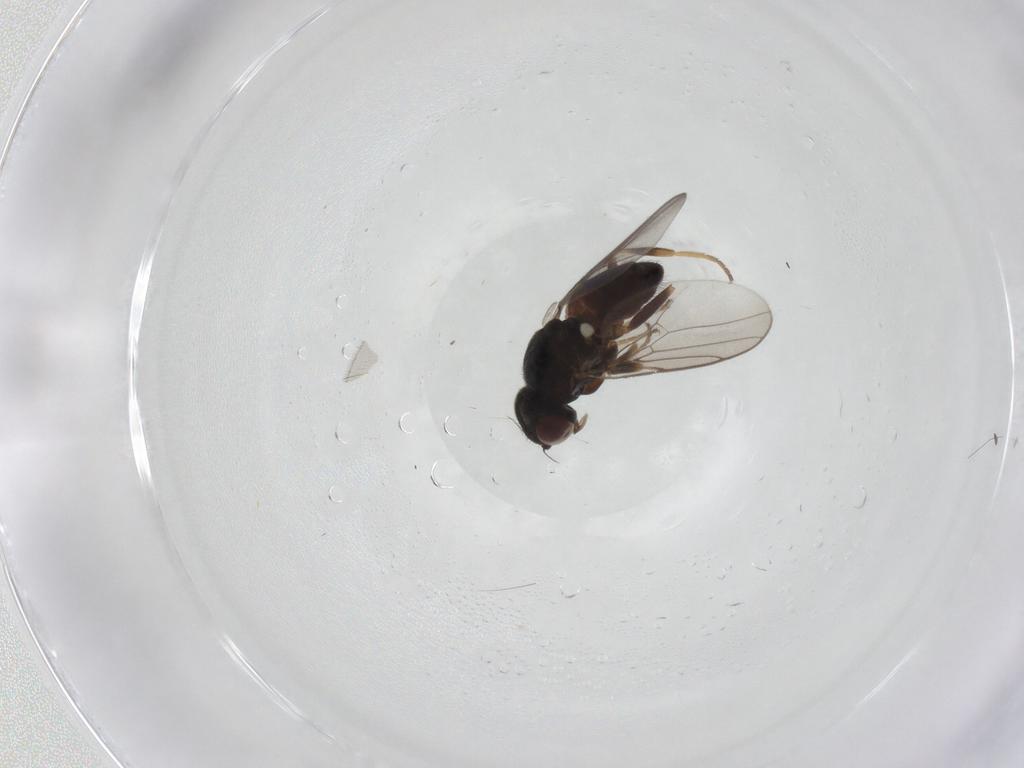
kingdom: Animalia
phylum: Arthropoda
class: Insecta
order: Diptera
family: Chloropidae
